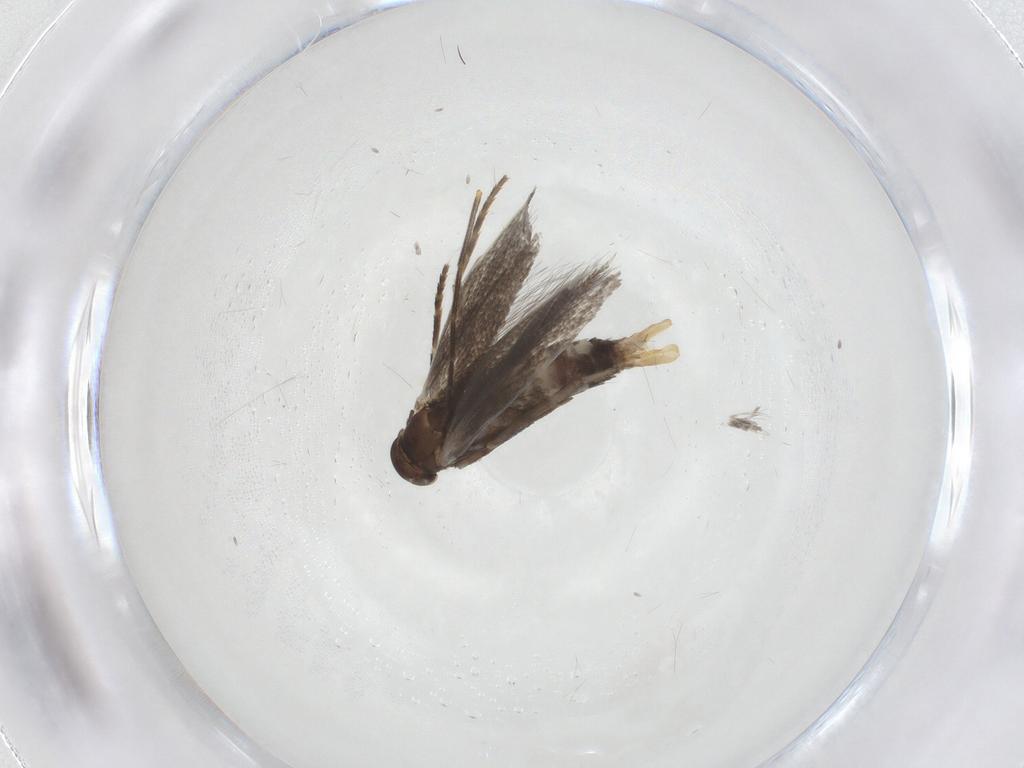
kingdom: Animalia
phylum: Arthropoda
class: Insecta
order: Lepidoptera
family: Elachistidae
